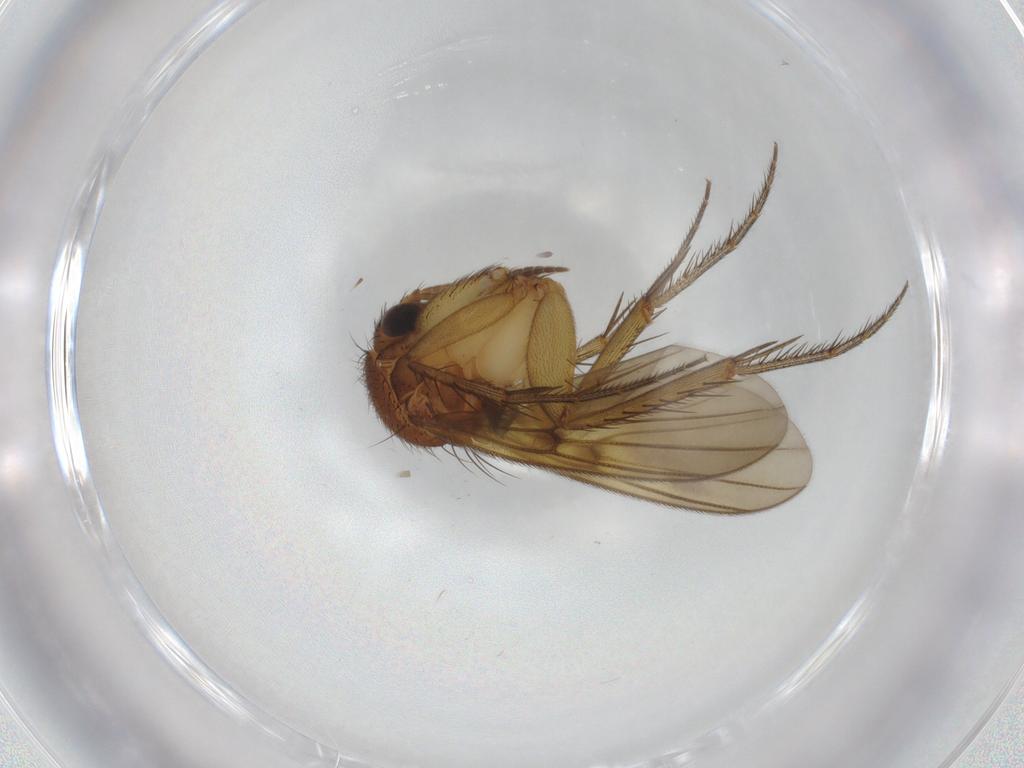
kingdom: Animalia
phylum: Arthropoda
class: Insecta
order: Diptera
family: Mycetophilidae
